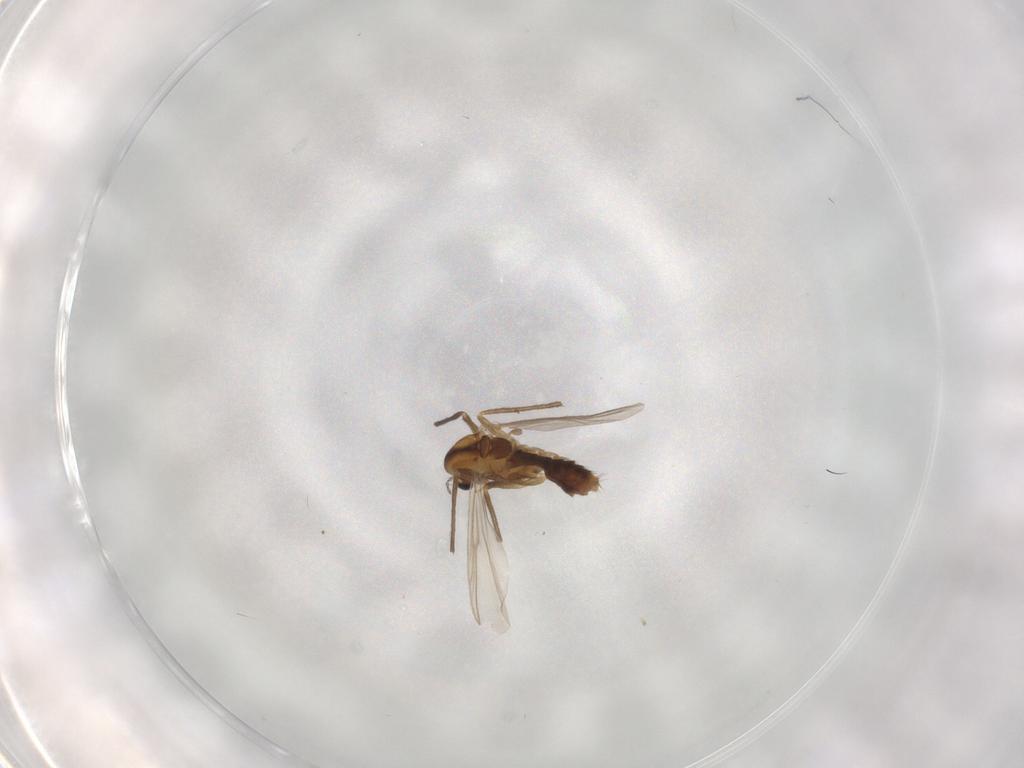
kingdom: Animalia
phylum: Arthropoda
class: Insecta
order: Diptera
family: Chironomidae
